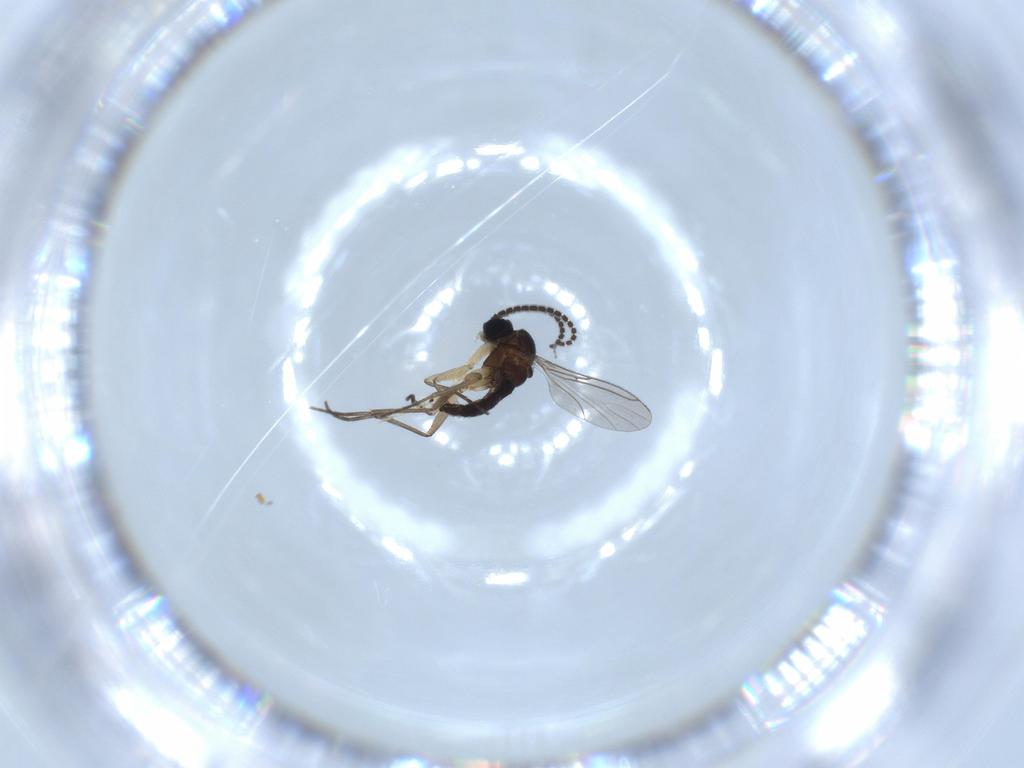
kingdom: Animalia
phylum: Arthropoda
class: Insecta
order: Diptera
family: Sciaridae
